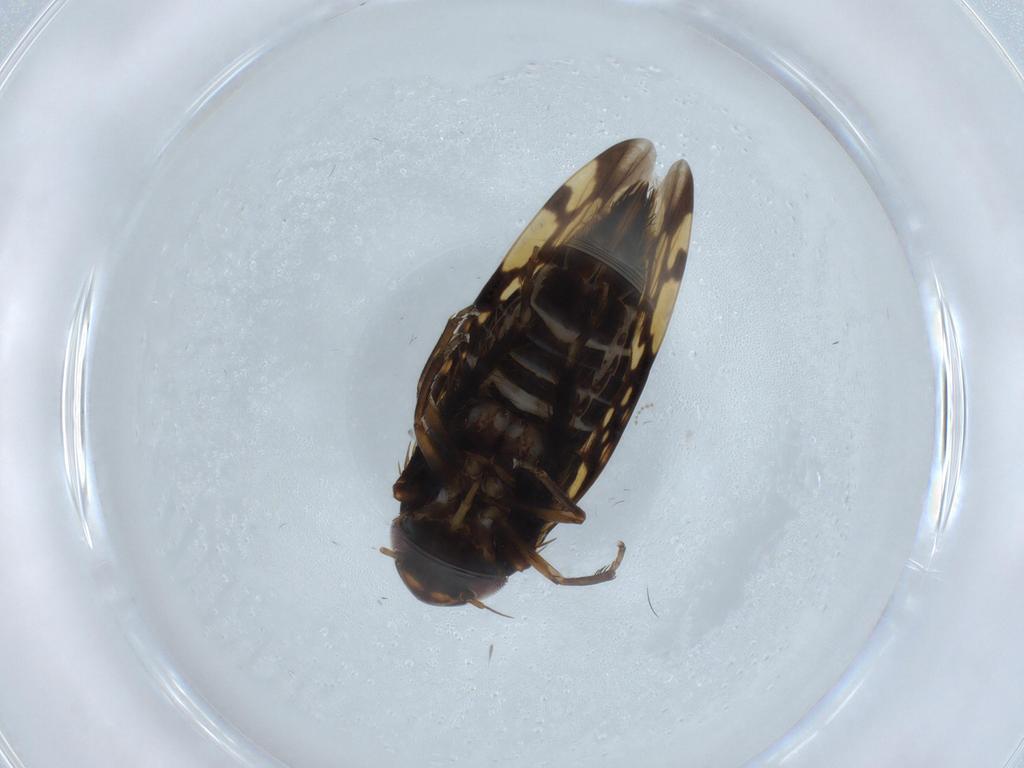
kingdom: Animalia
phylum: Arthropoda
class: Insecta
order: Hemiptera
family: Cicadellidae
